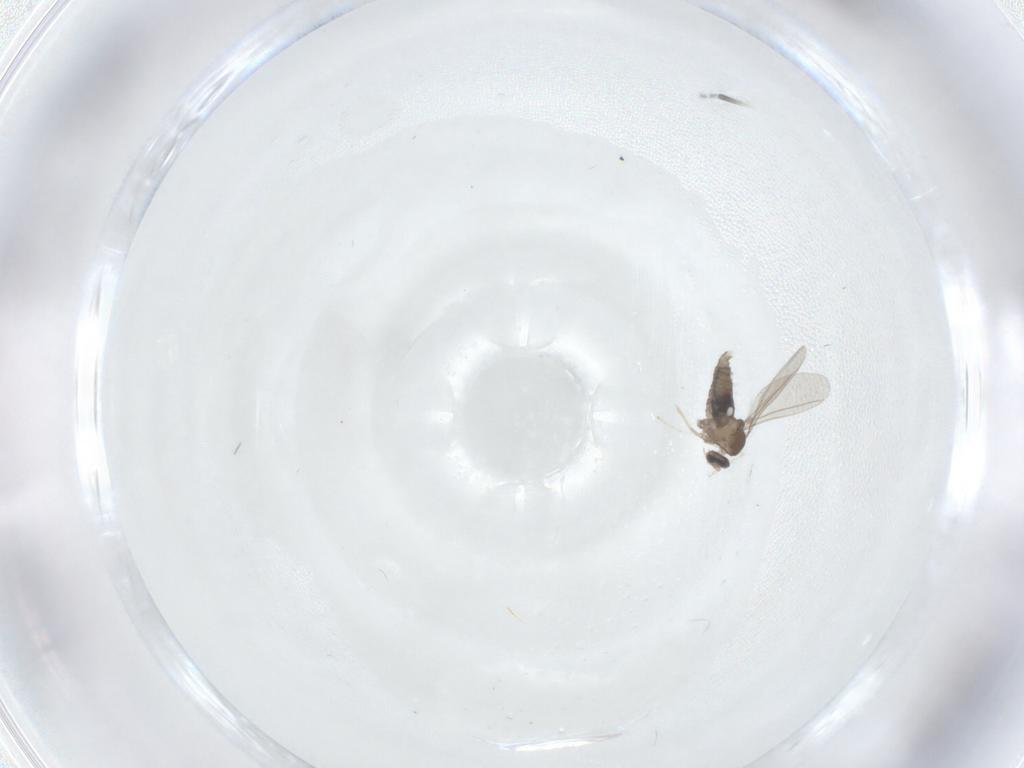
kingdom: Animalia
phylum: Arthropoda
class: Insecta
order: Diptera
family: Cecidomyiidae
